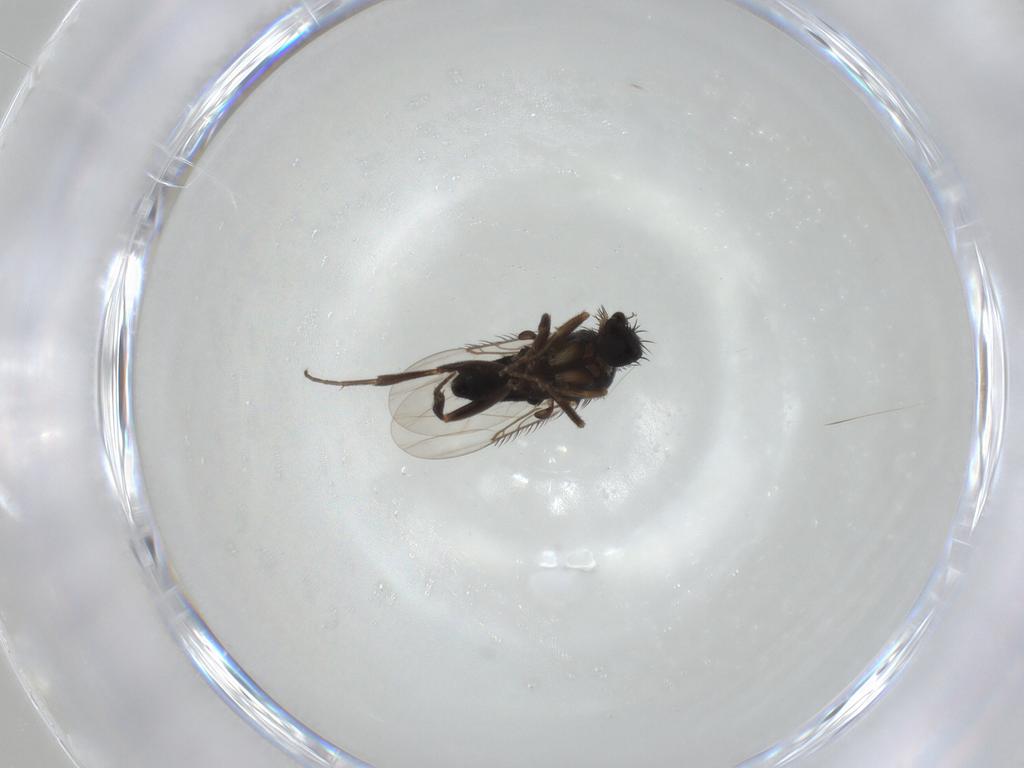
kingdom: Animalia
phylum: Arthropoda
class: Insecta
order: Diptera
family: Phoridae
